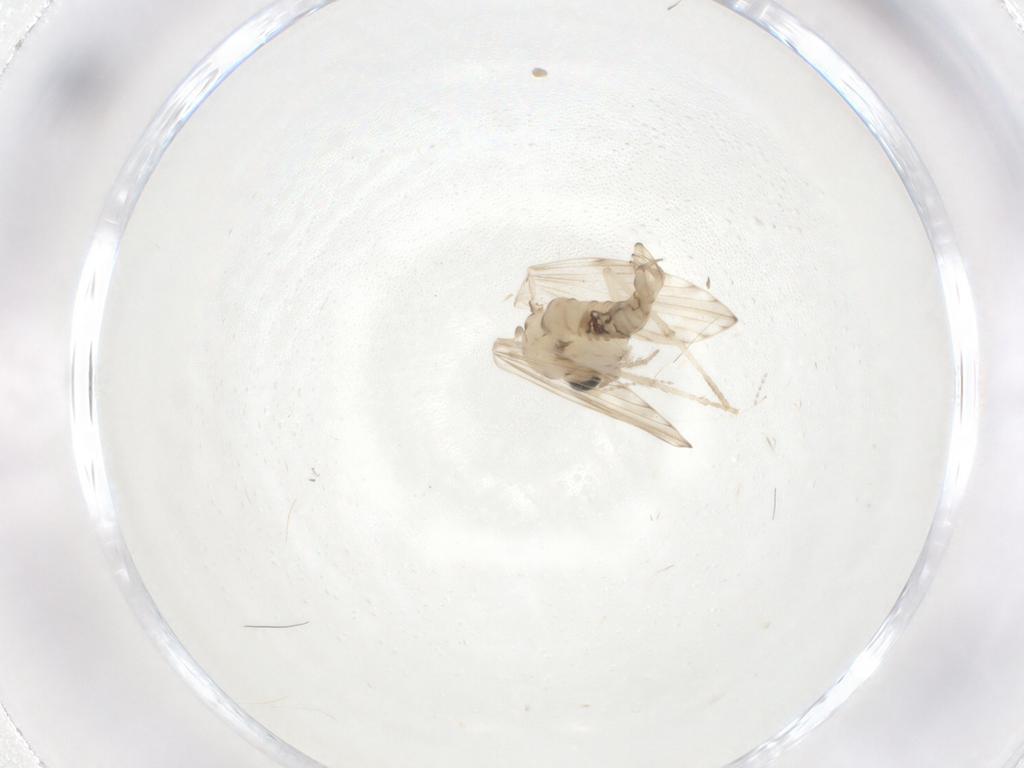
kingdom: Animalia
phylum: Arthropoda
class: Insecta
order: Diptera
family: Psychodidae
